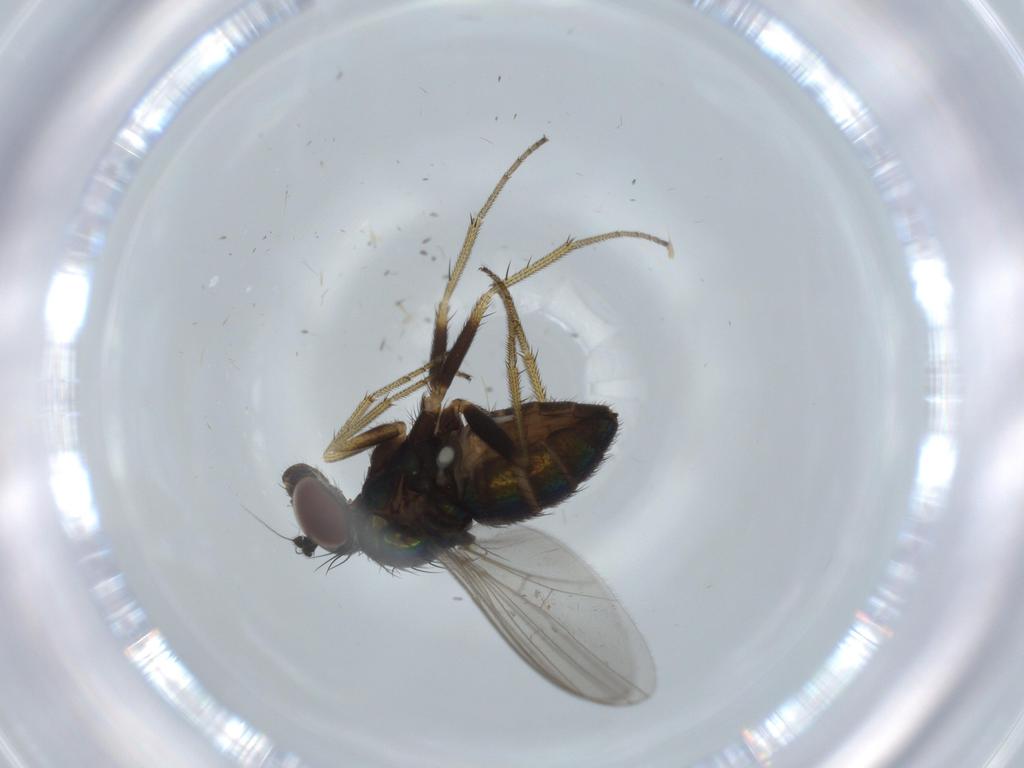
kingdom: Animalia
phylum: Arthropoda
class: Insecta
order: Diptera
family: Dolichopodidae
